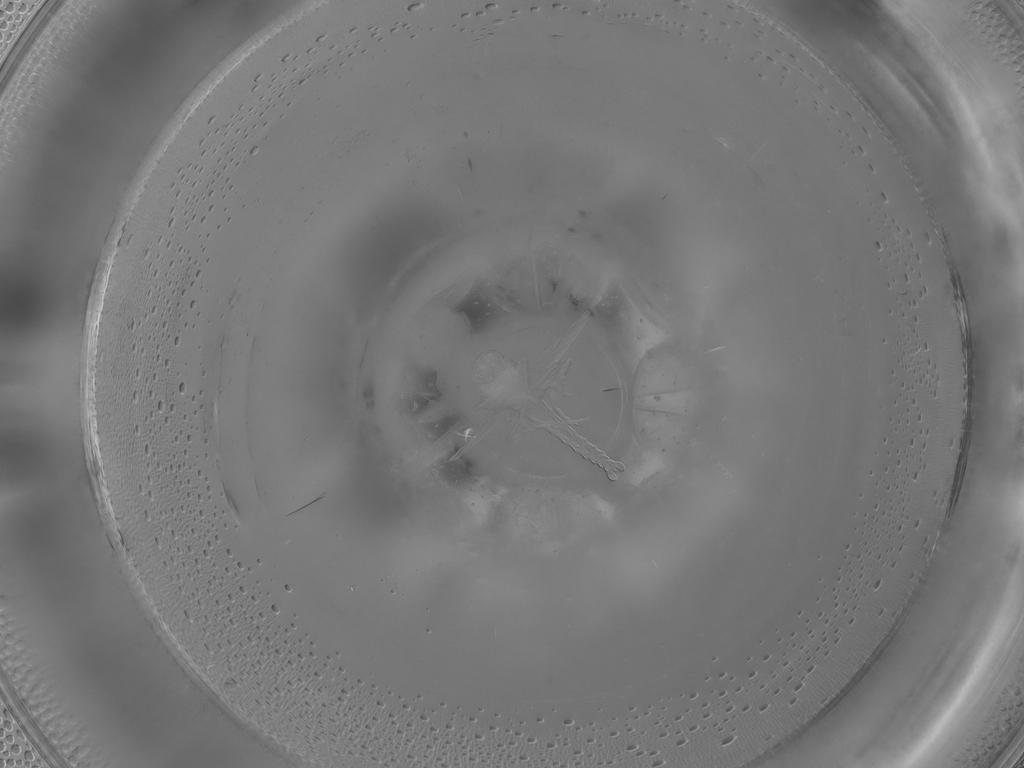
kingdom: Animalia
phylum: Arthropoda
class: Insecta
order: Diptera
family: Ceratopogonidae
